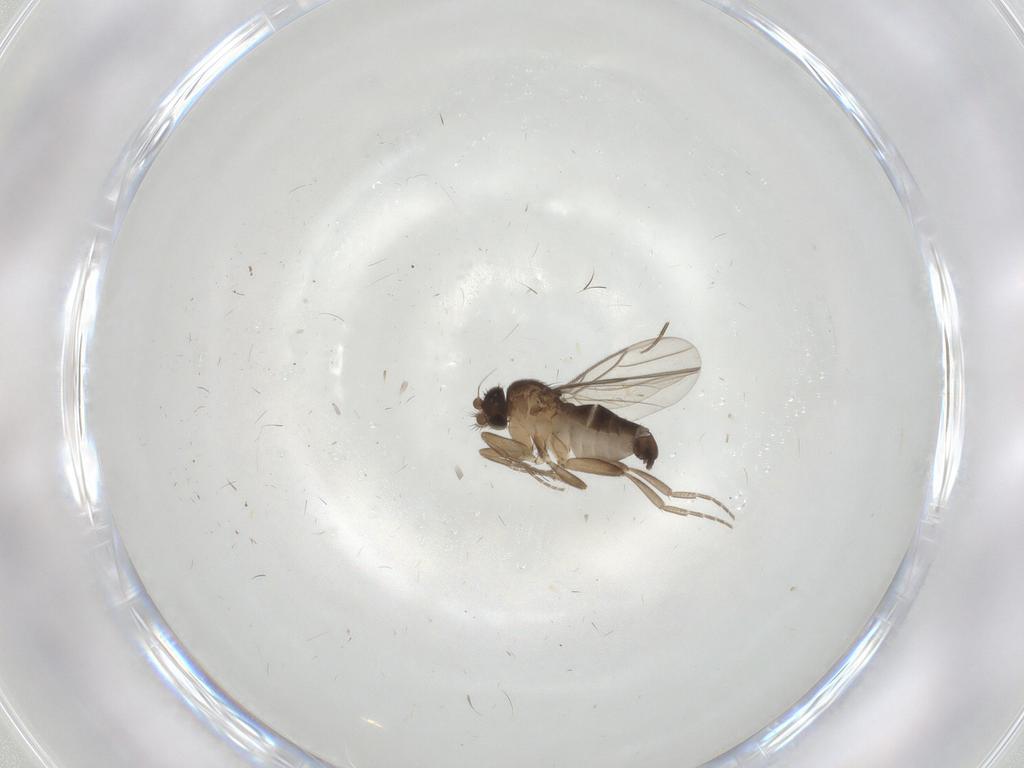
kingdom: Animalia
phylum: Arthropoda
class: Insecta
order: Diptera
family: Phoridae
